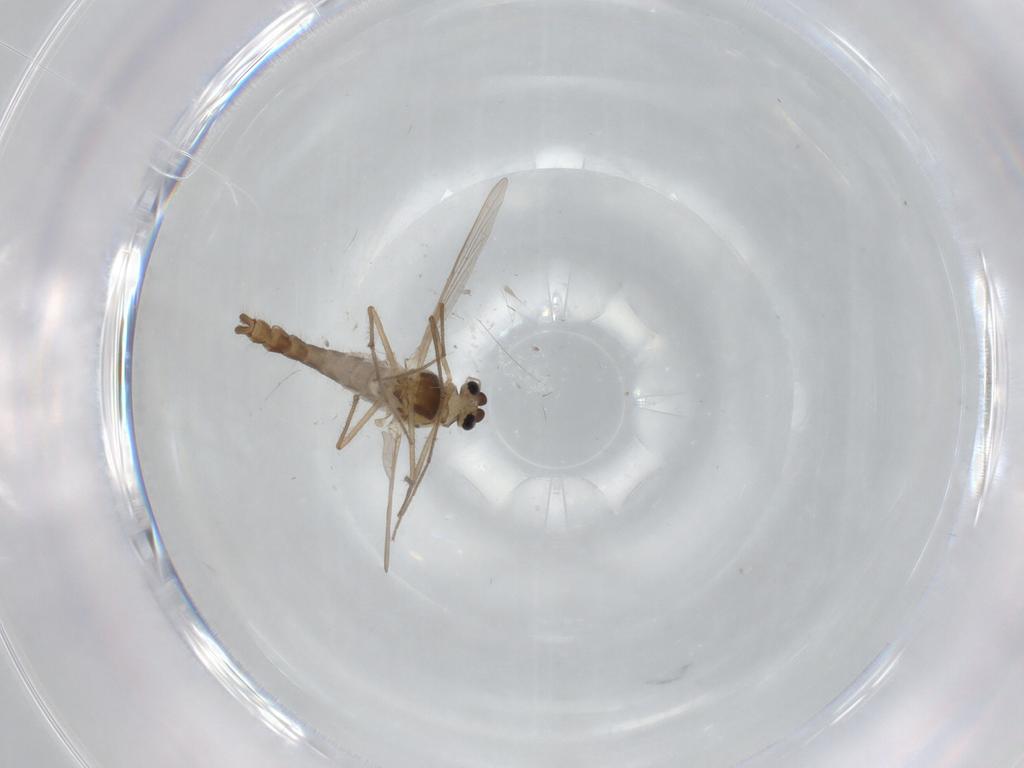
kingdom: Animalia
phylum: Arthropoda
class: Insecta
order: Diptera
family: Chironomidae
